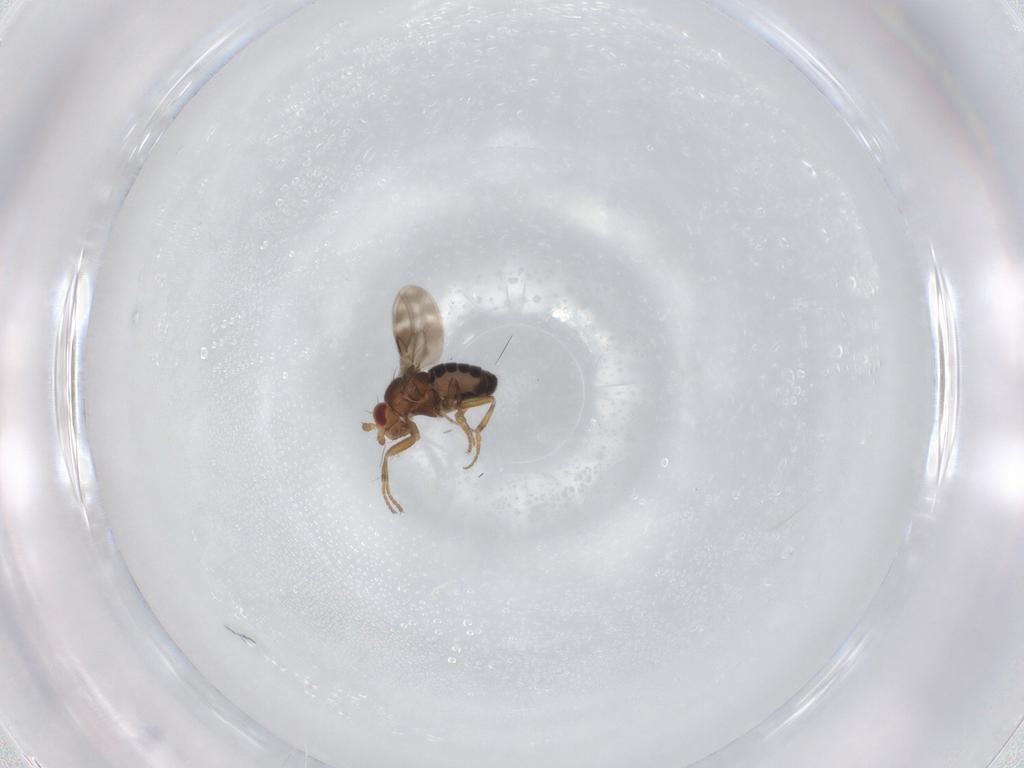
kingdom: Animalia
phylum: Arthropoda
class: Insecta
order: Diptera
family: Sphaeroceridae
